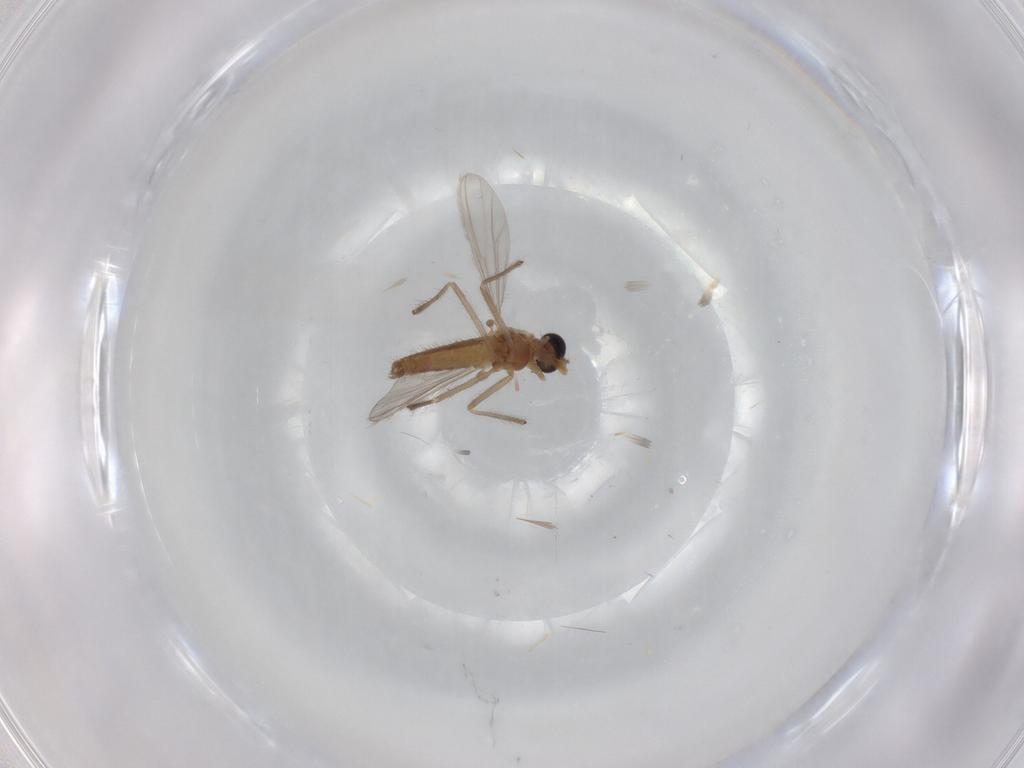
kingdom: Animalia
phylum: Arthropoda
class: Insecta
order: Diptera
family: Chironomidae
